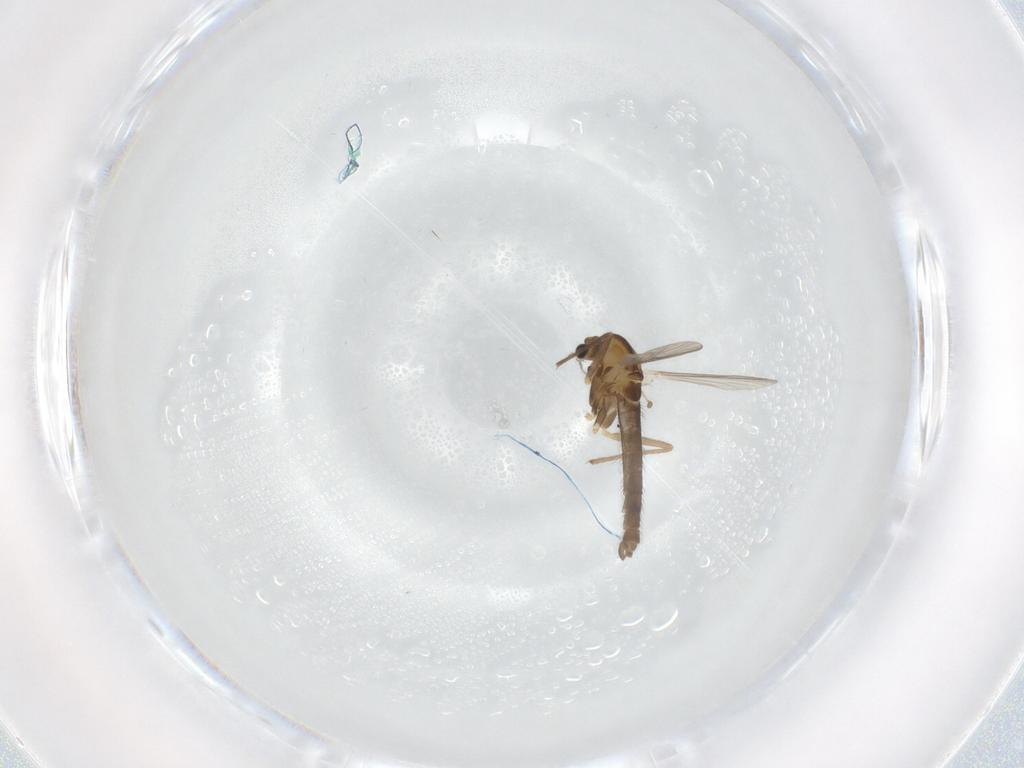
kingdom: Animalia
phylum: Arthropoda
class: Insecta
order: Diptera
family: Chironomidae
